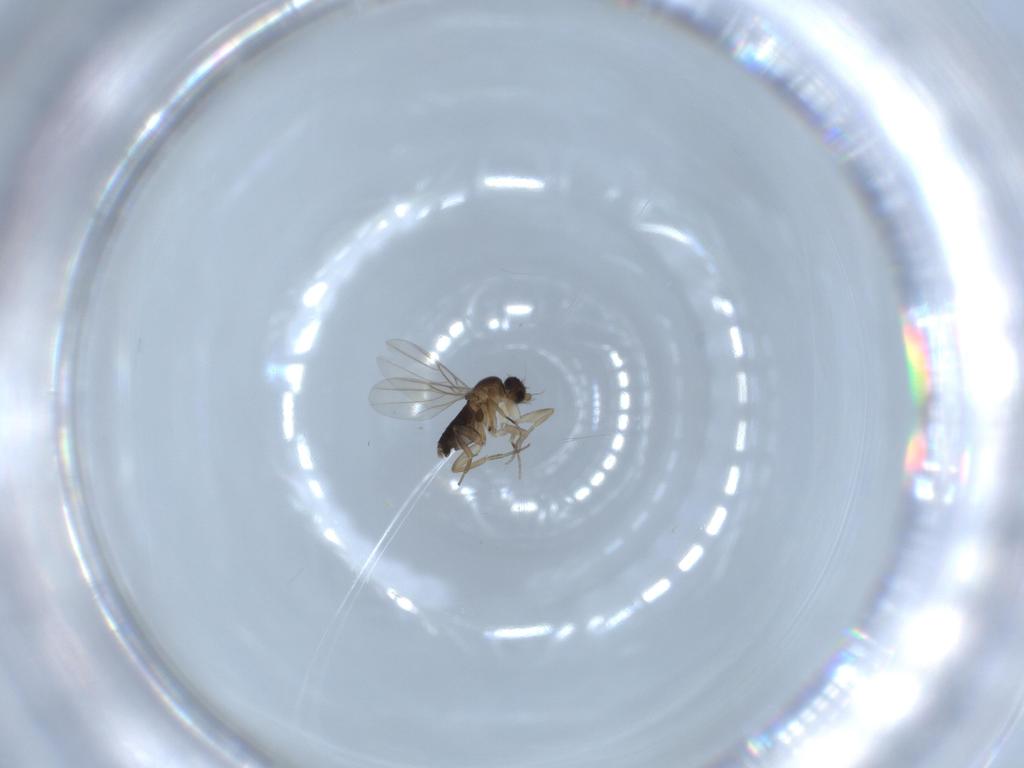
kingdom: Animalia
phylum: Arthropoda
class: Insecta
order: Diptera
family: Phoridae
